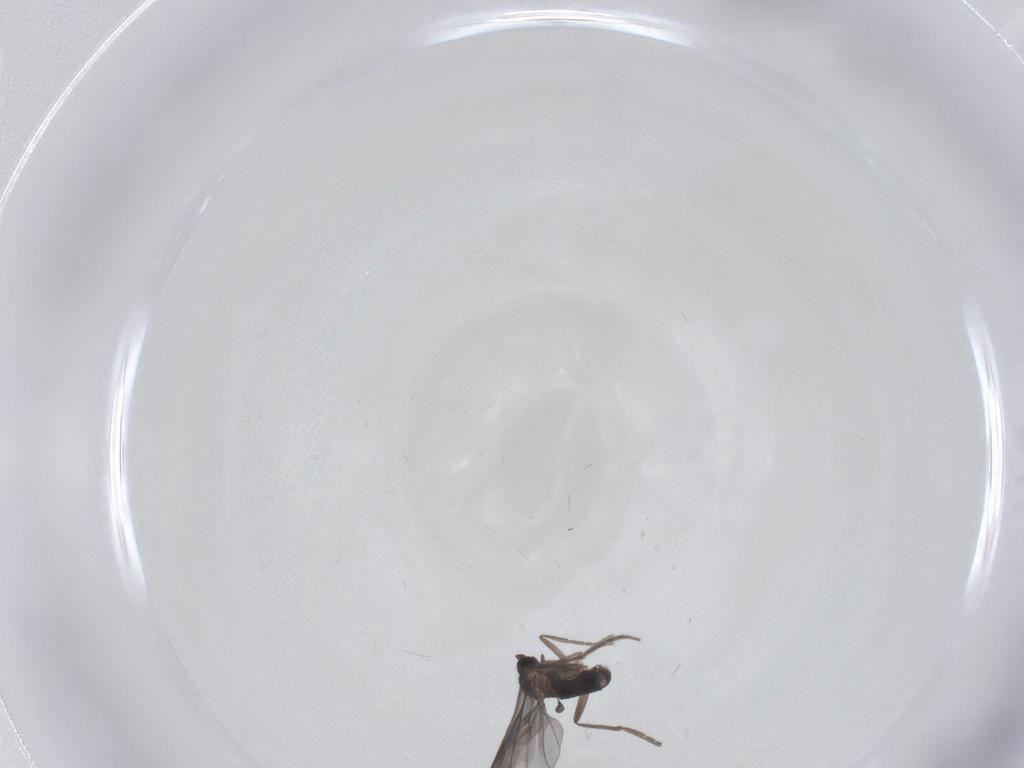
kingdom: Animalia
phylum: Arthropoda
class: Insecta
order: Diptera
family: Phoridae
